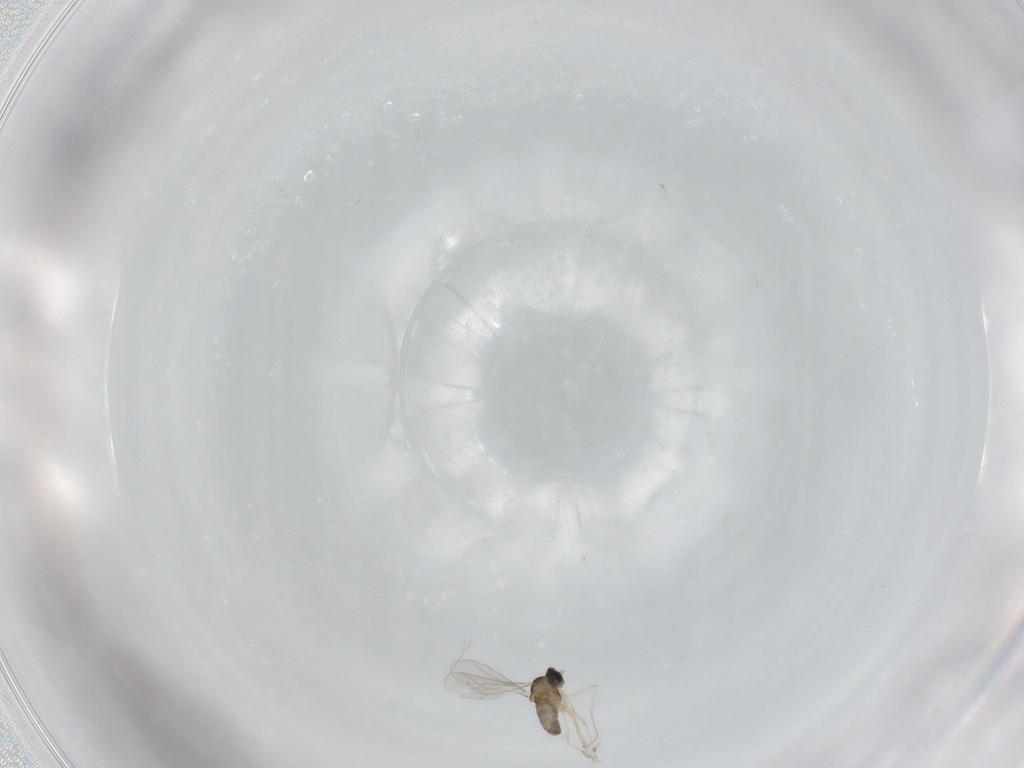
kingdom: Animalia
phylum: Arthropoda
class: Insecta
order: Diptera
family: Cecidomyiidae
